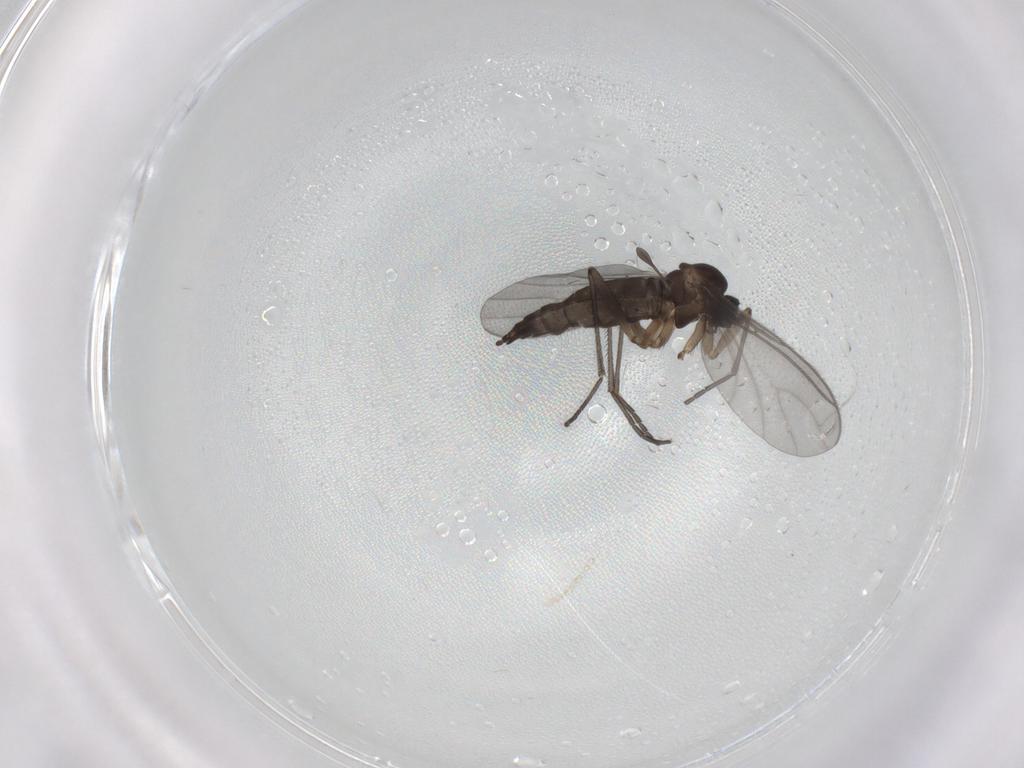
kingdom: Animalia
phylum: Arthropoda
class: Insecta
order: Diptera
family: Sciaridae
